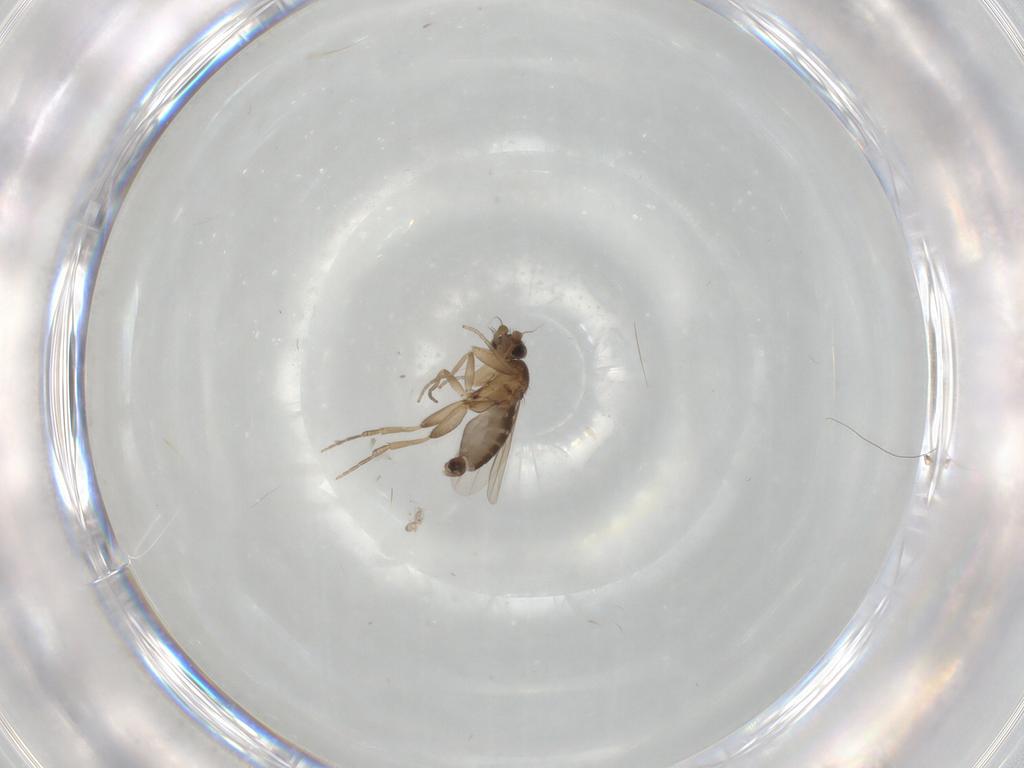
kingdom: Animalia
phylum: Arthropoda
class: Insecta
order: Diptera
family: Phoridae
